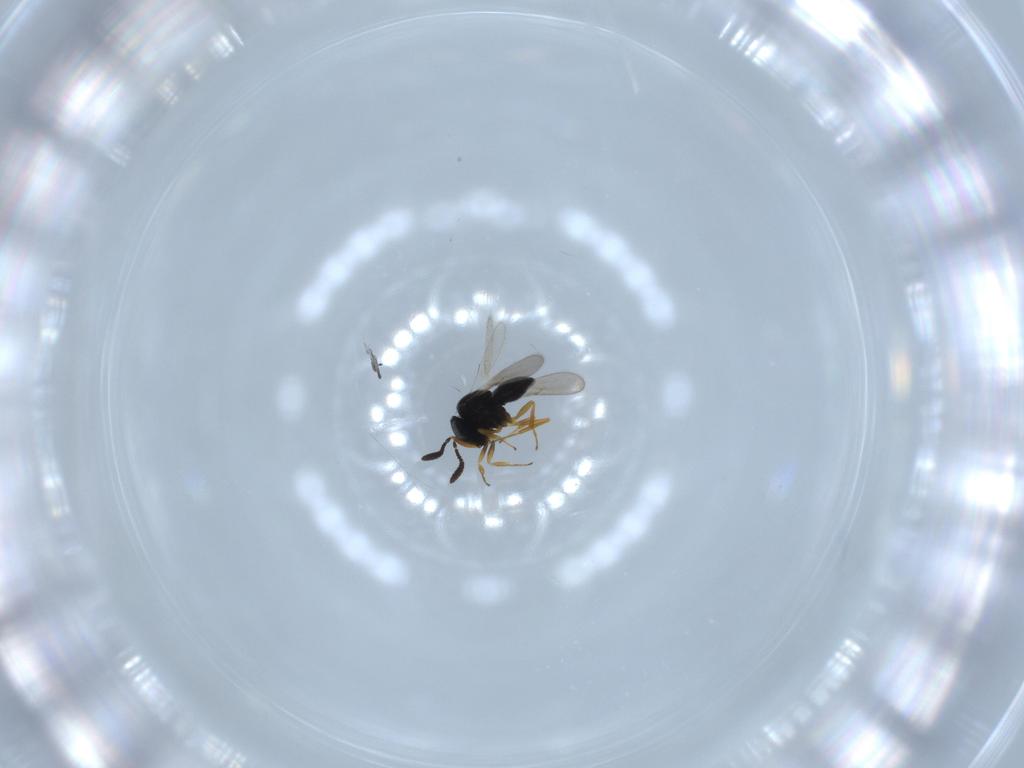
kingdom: Animalia
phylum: Arthropoda
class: Insecta
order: Hymenoptera
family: Scelionidae
